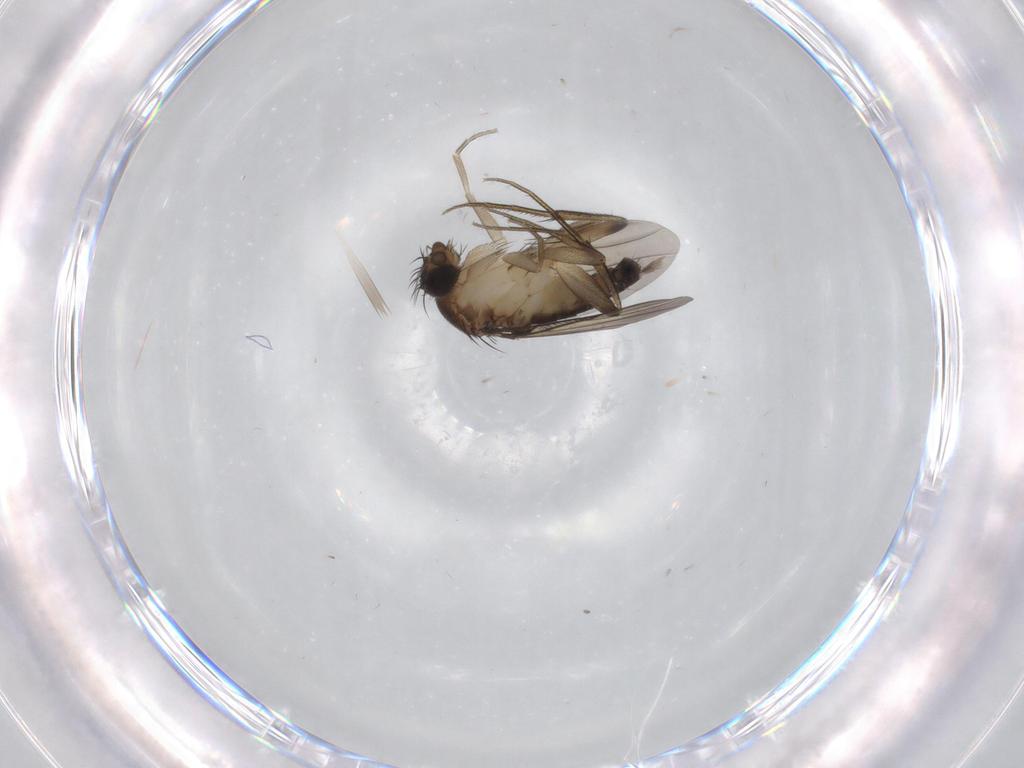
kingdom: Animalia
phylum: Arthropoda
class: Insecta
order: Diptera
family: Phoridae
